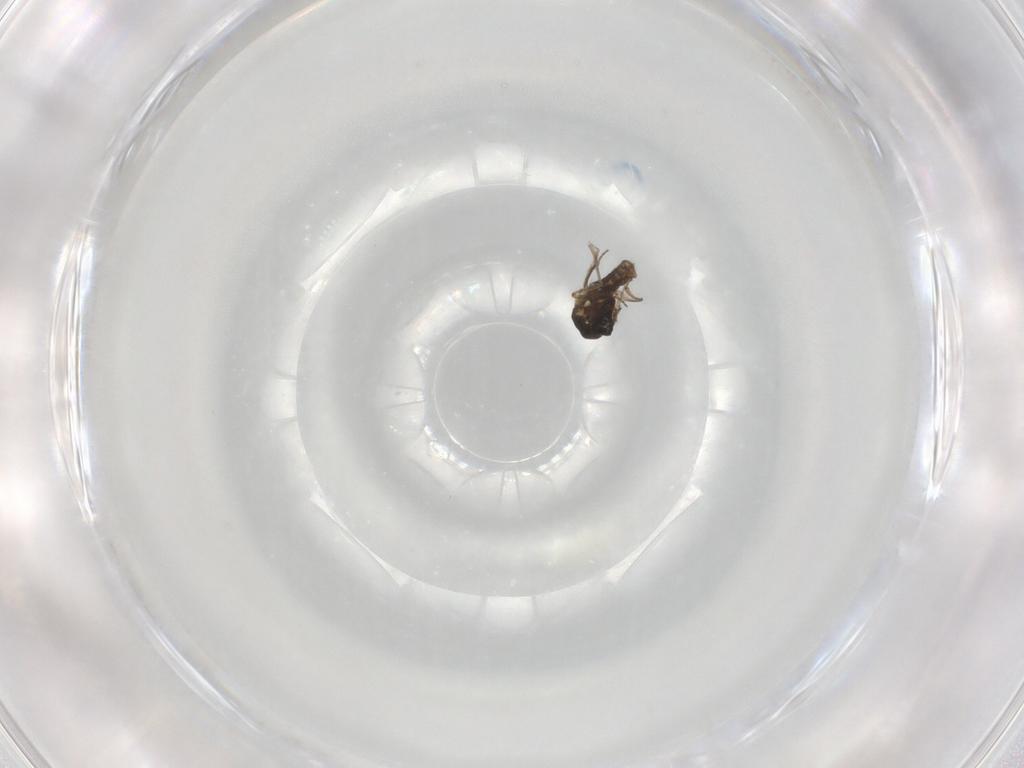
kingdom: Animalia
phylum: Arthropoda
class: Insecta
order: Diptera
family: Ceratopogonidae
